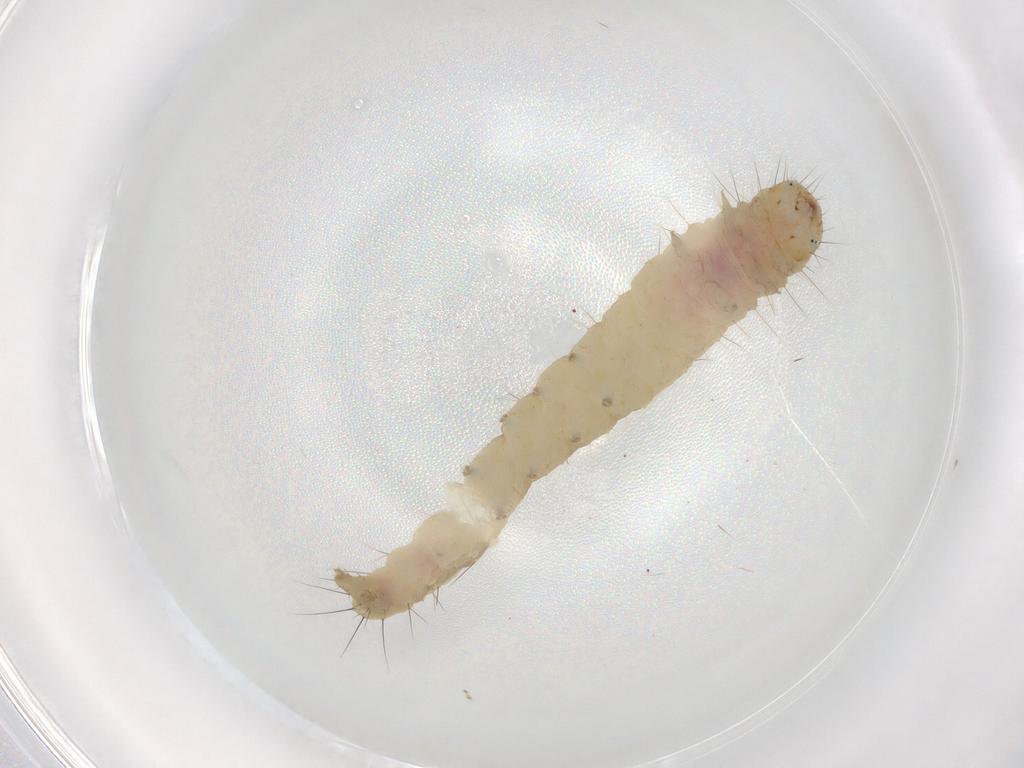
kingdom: Animalia
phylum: Arthropoda
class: Insecta
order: Lepidoptera
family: Gelechiidae
